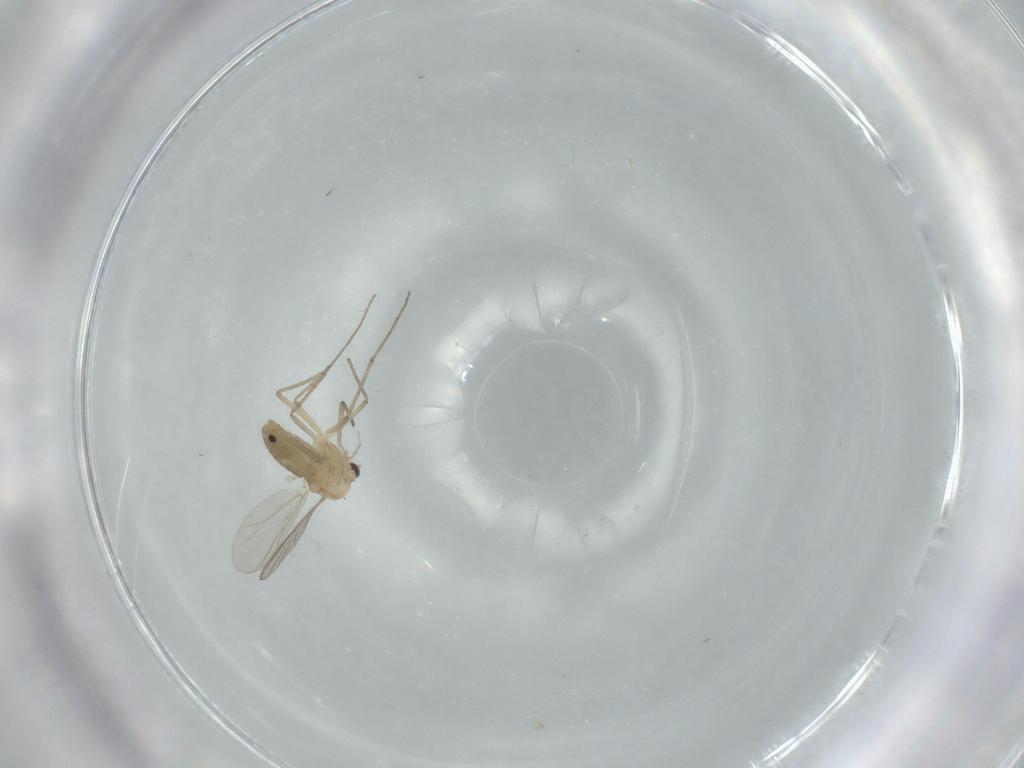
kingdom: Animalia
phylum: Arthropoda
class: Insecta
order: Diptera
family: Chironomidae
